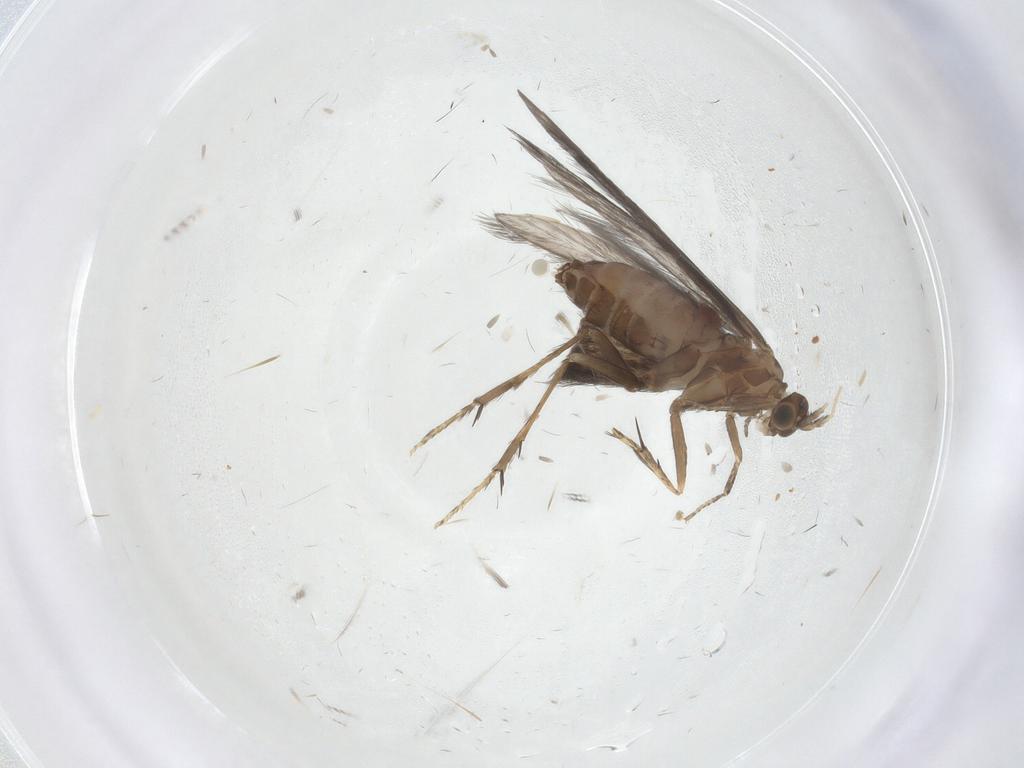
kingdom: Animalia
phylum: Arthropoda
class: Insecta
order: Trichoptera
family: Glossosomatidae
